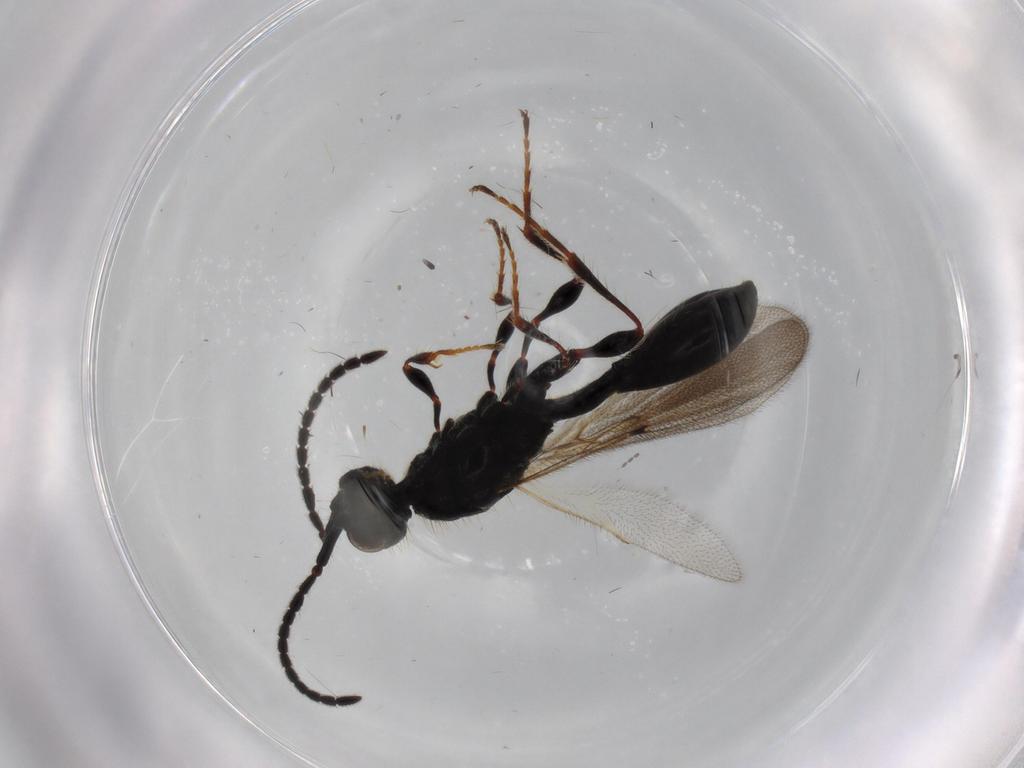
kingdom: Animalia
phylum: Arthropoda
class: Insecta
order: Hymenoptera
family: Diapriidae
